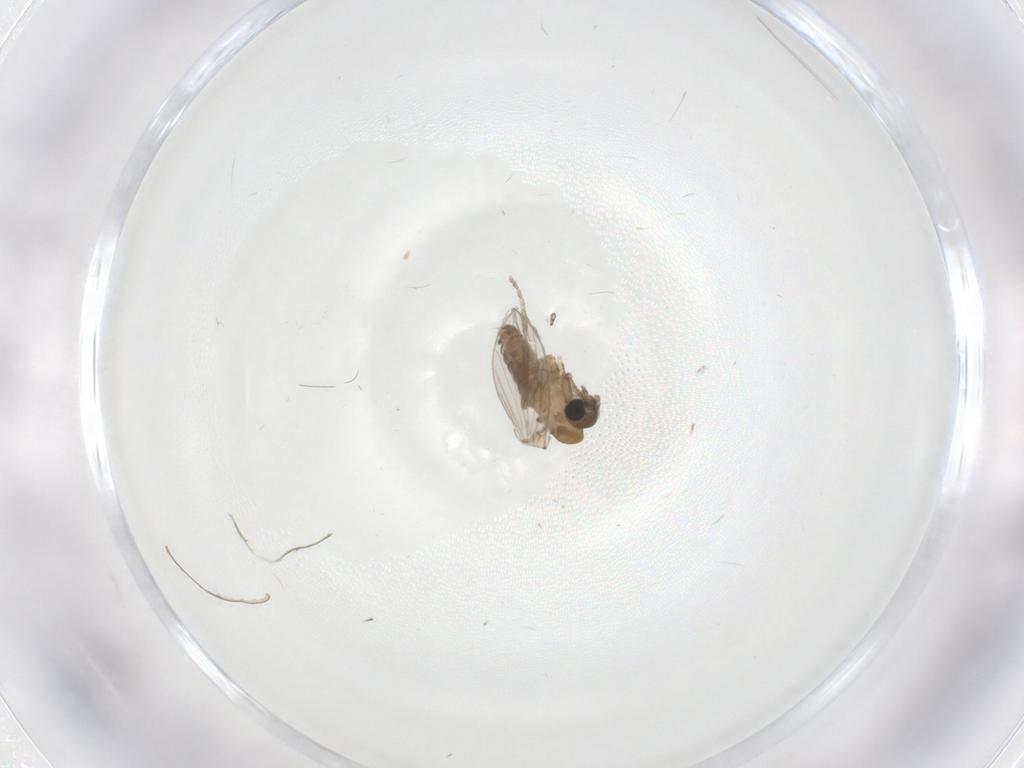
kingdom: Animalia
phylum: Arthropoda
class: Insecta
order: Diptera
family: Psychodidae
